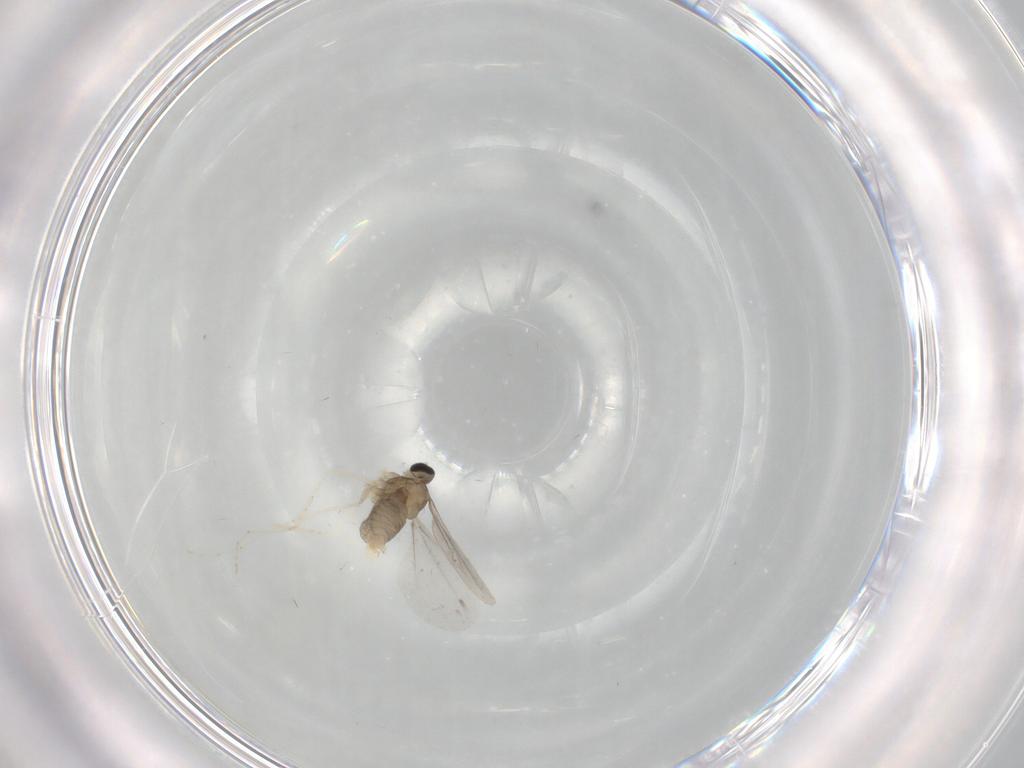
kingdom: Animalia
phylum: Arthropoda
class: Insecta
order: Diptera
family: Cecidomyiidae
